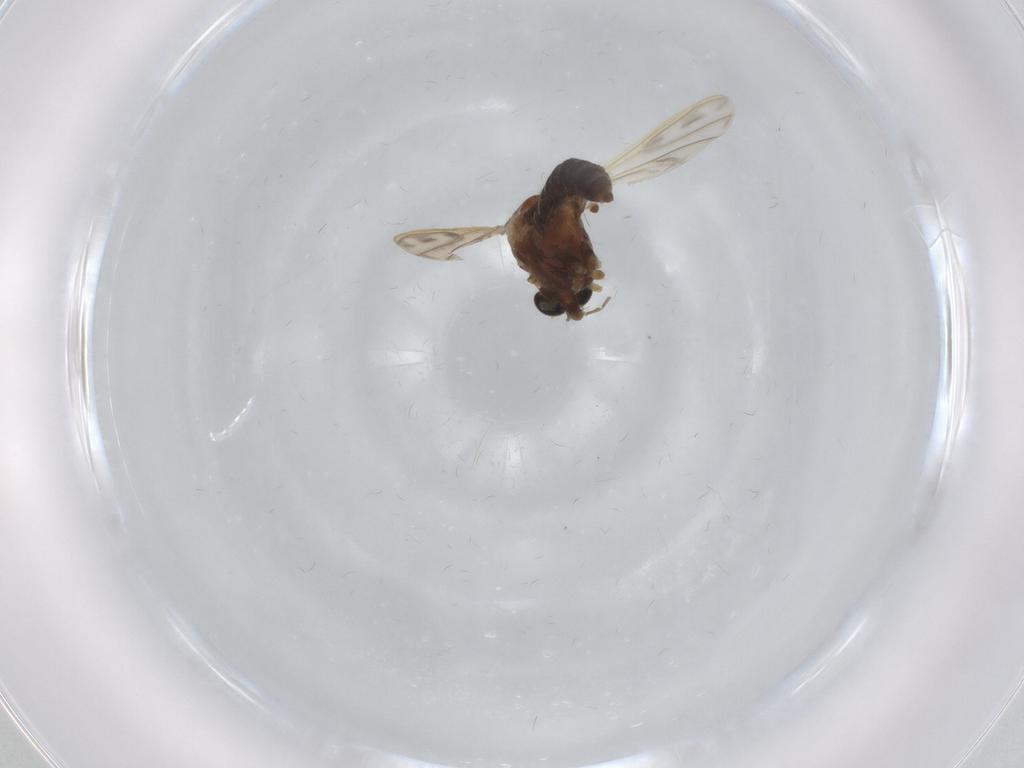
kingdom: Animalia
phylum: Arthropoda
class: Insecta
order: Diptera
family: Chironomidae
